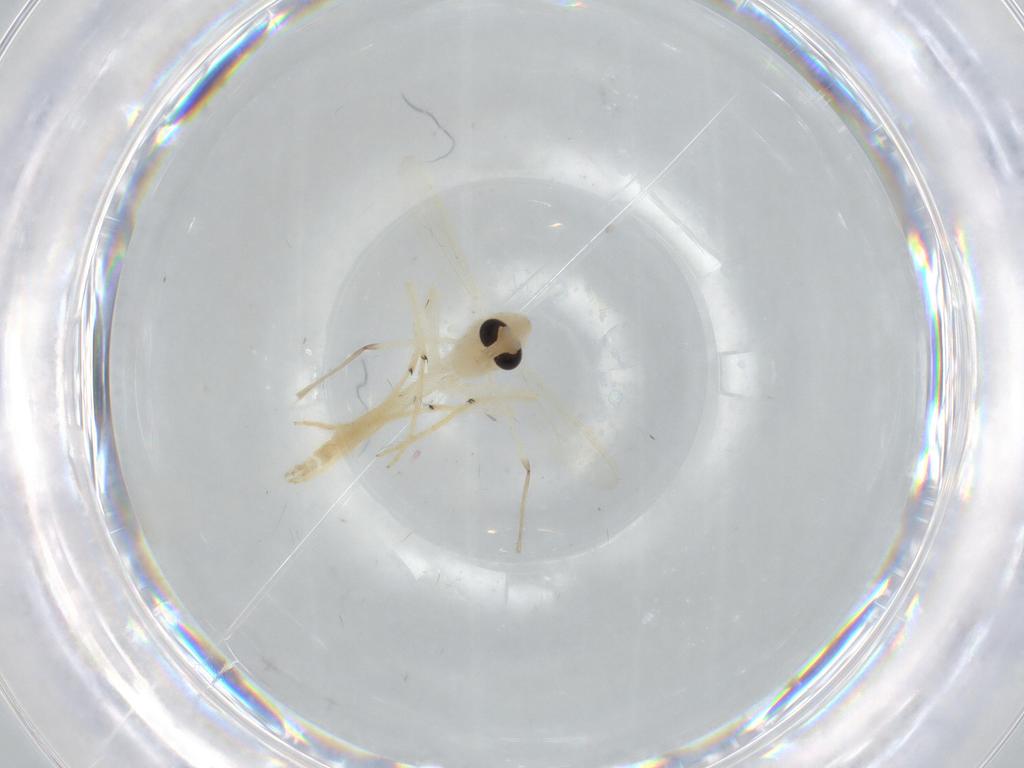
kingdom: Animalia
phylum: Arthropoda
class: Insecta
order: Diptera
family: Chironomidae
